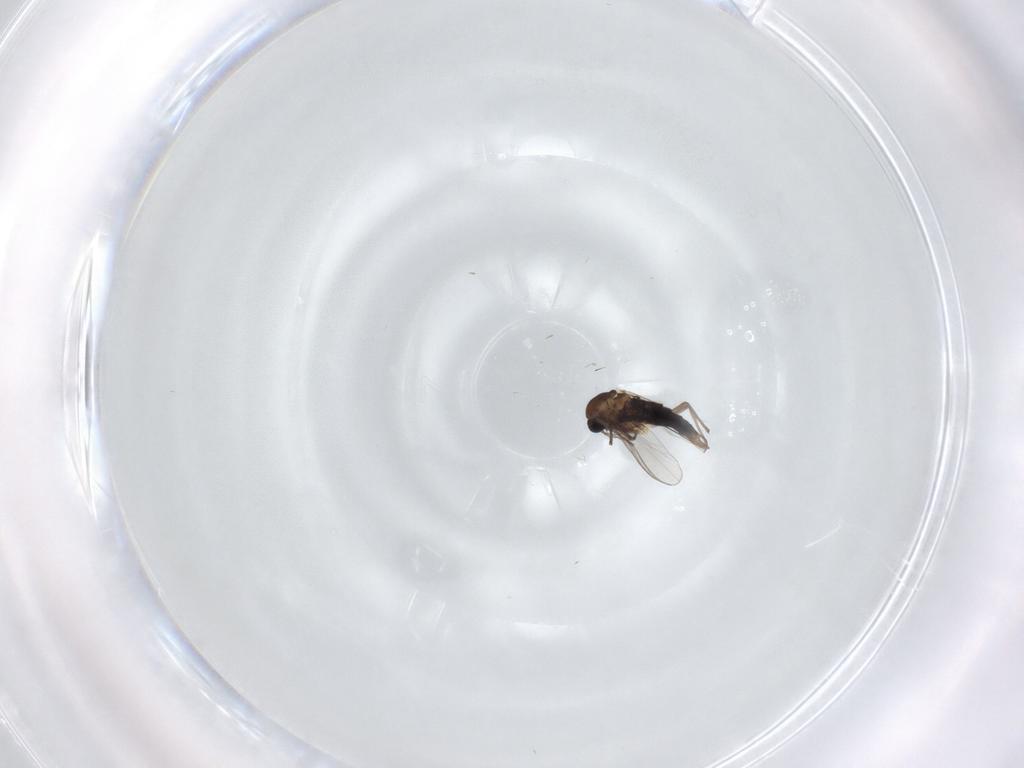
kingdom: Animalia
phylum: Arthropoda
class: Insecta
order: Diptera
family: Chironomidae
